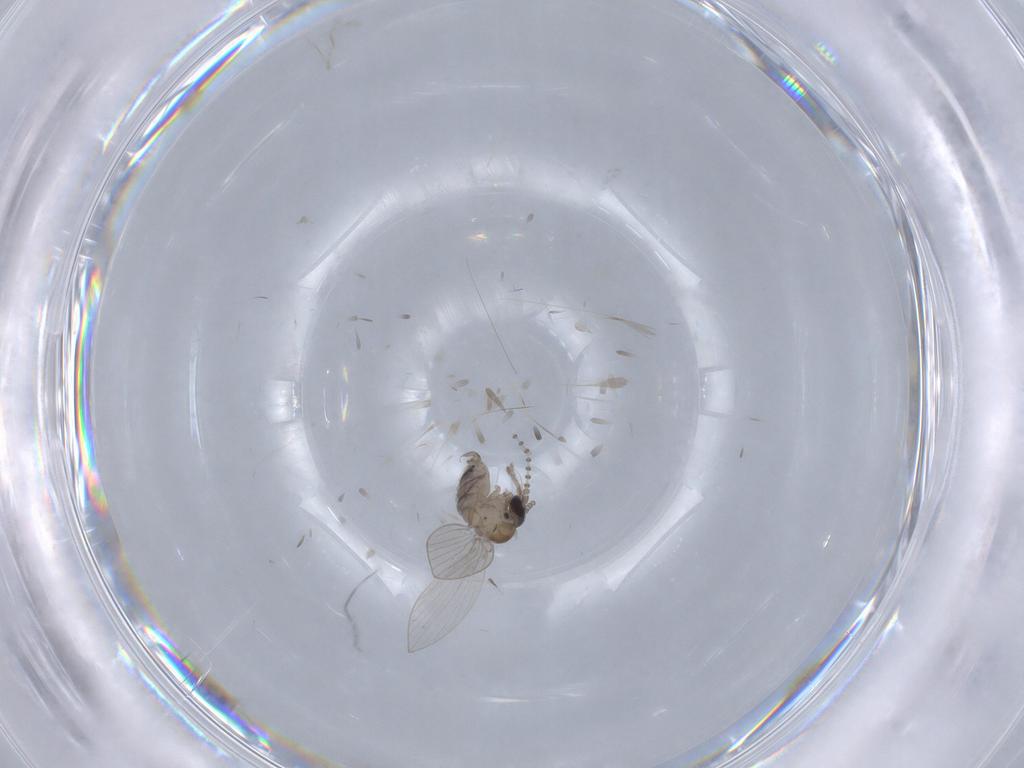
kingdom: Animalia
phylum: Arthropoda
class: Insecta
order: Diptera
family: Psychodidae
